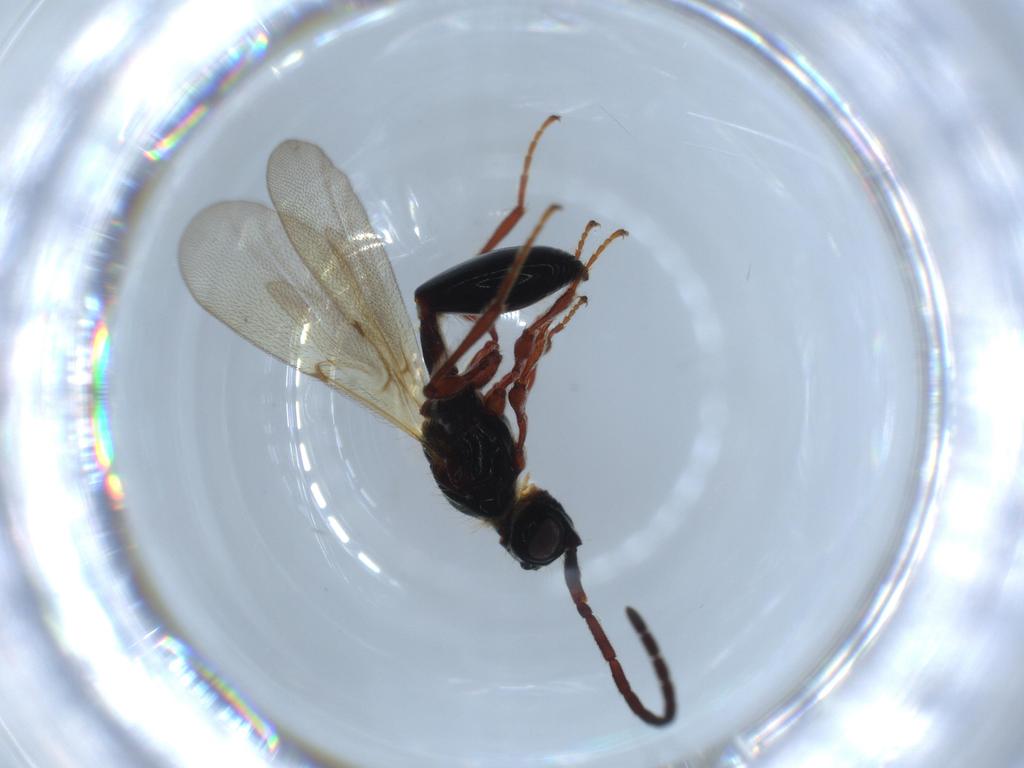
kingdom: Animalia
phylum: Arthropoda
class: Insecta
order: Hymenoptera
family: Diapriidae
